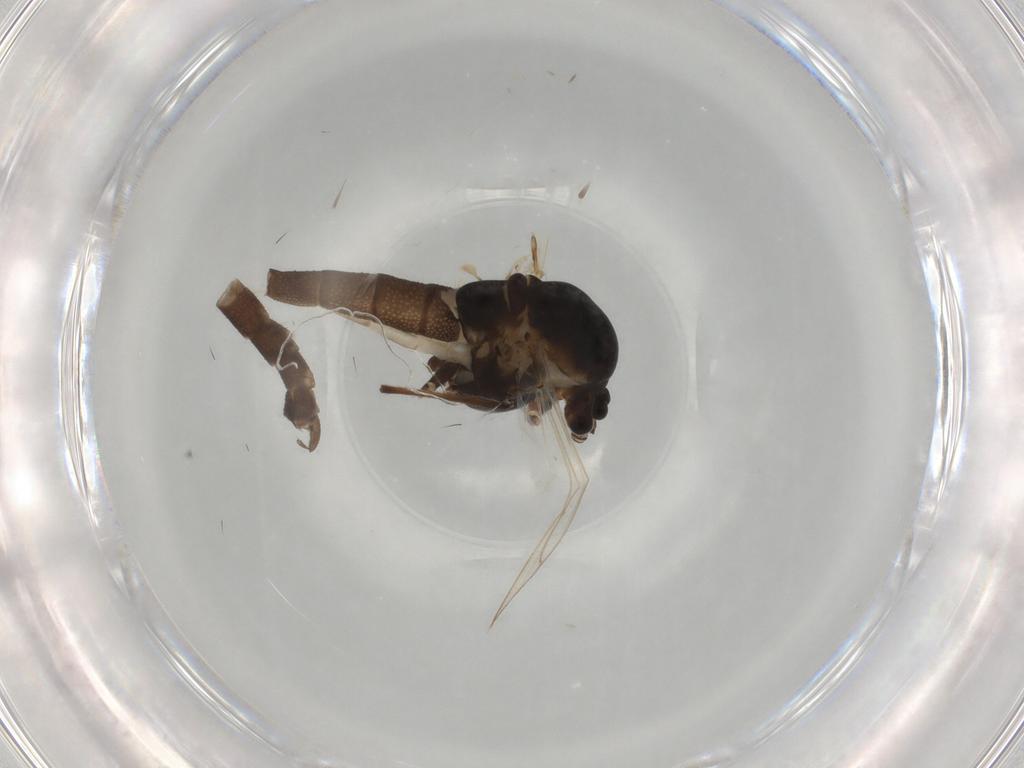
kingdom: Animalia
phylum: Arthropoda
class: Insecta
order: Diptera
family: Chironomidae
